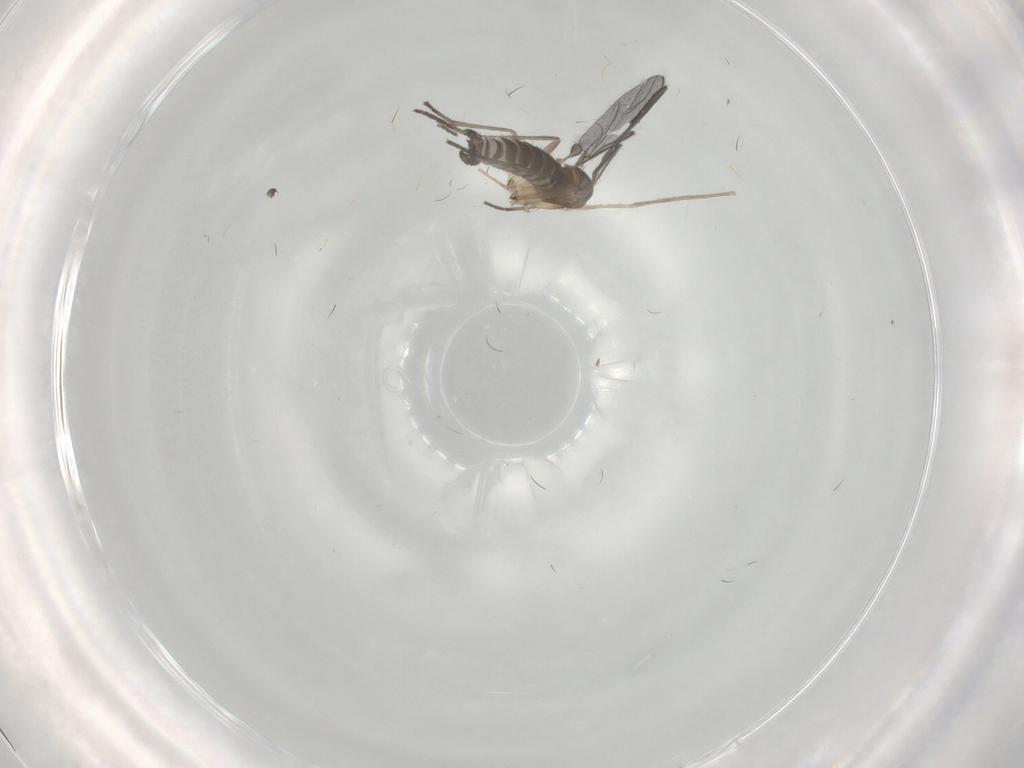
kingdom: Animalia
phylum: Arthropoda
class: Insecta
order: Diptera
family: Chironomidae
